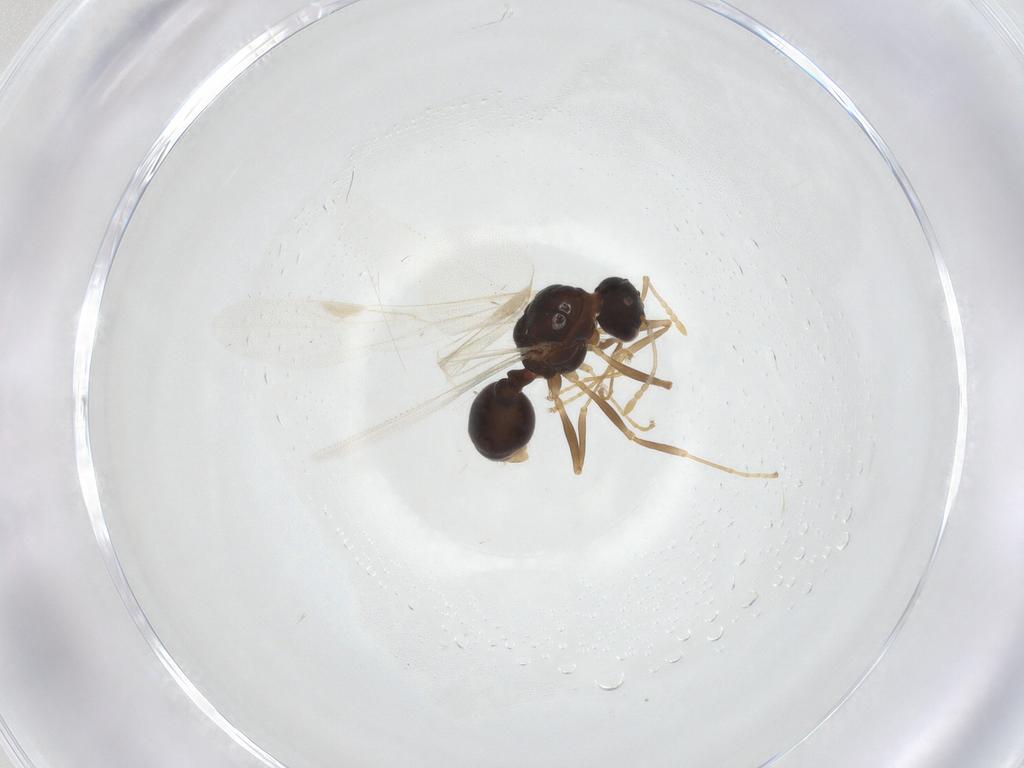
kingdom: Animalia
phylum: Arthropoda
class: Insecta
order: Hymenoptera
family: Formicidae
